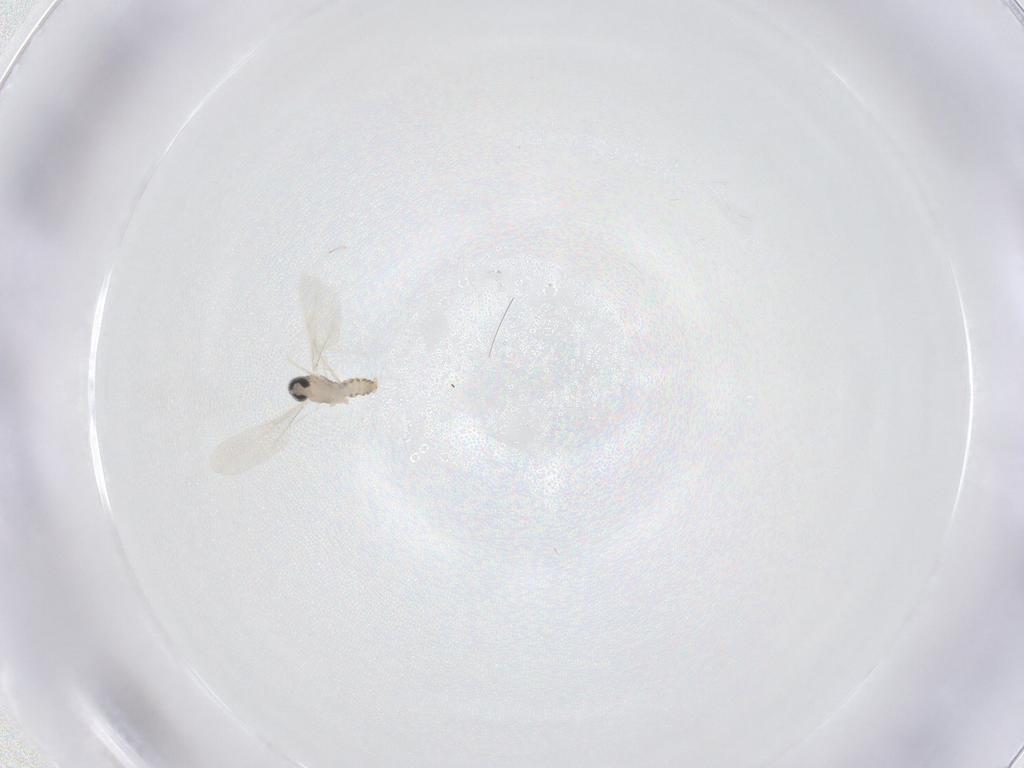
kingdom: Animalia
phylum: Arthropoda
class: Insecta
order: Diptera
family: Cecidomyiidae
